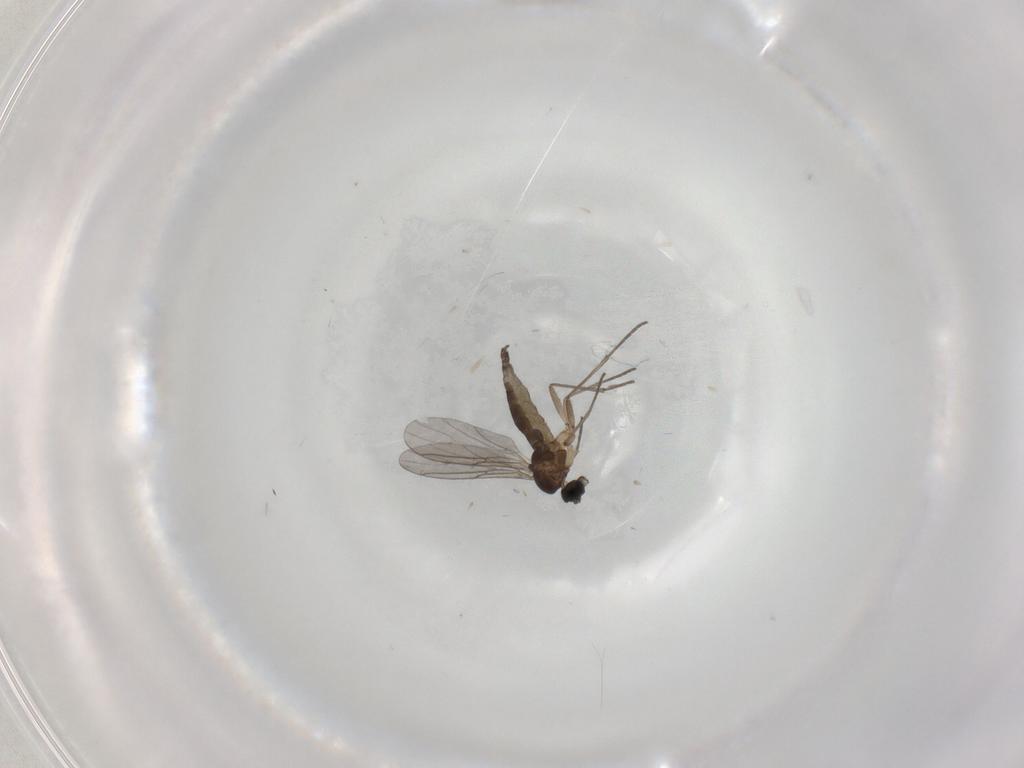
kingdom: Animalia
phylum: Arthropoda
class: Insecta
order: Diptera
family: Sciaridae
